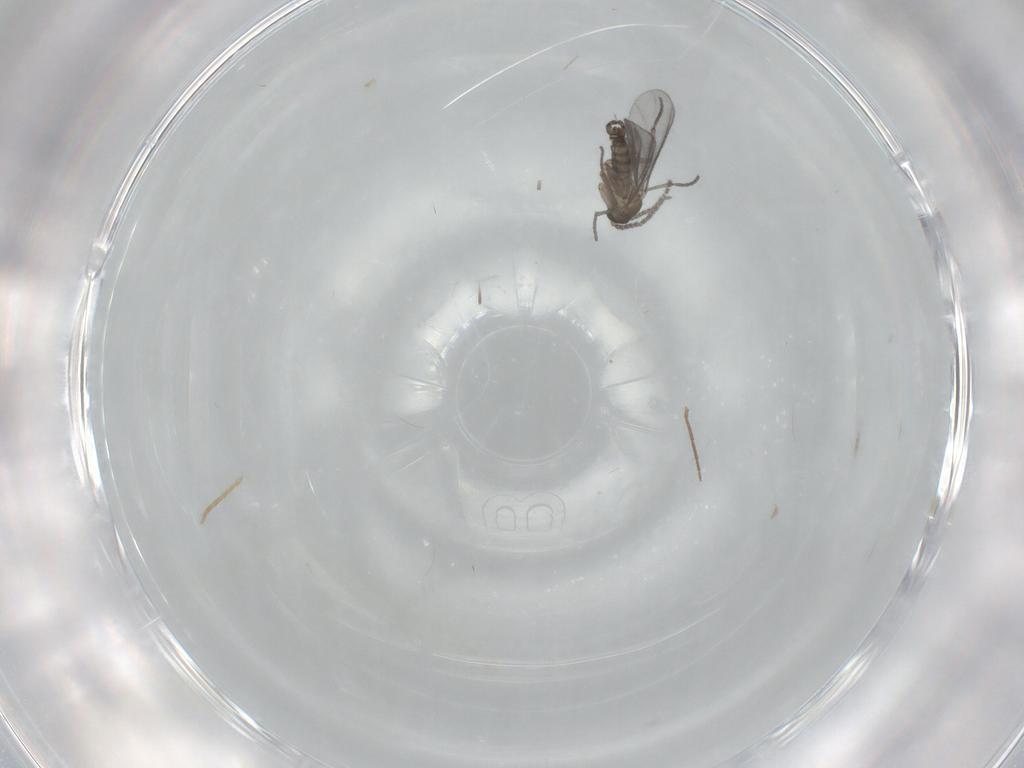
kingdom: Animalia
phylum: Arthropoda
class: Insecta
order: Diptera
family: Sciaridae
